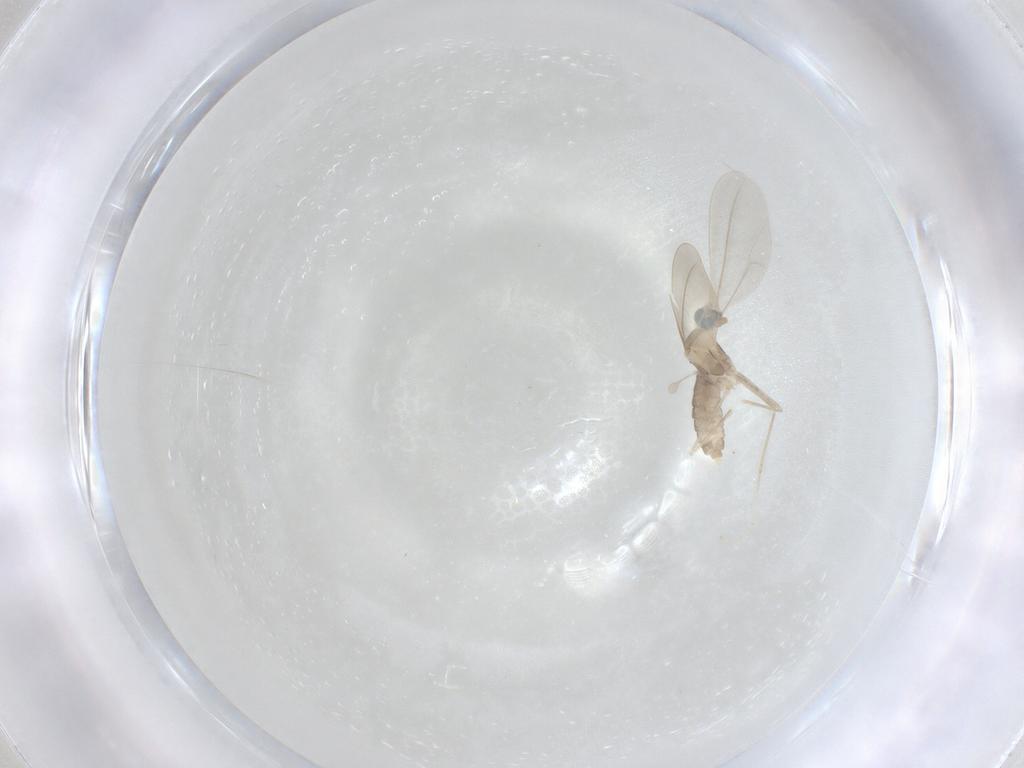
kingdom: Animalia
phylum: Arthropoda
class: Insecta
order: Diptera
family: Cecidomyiidae
